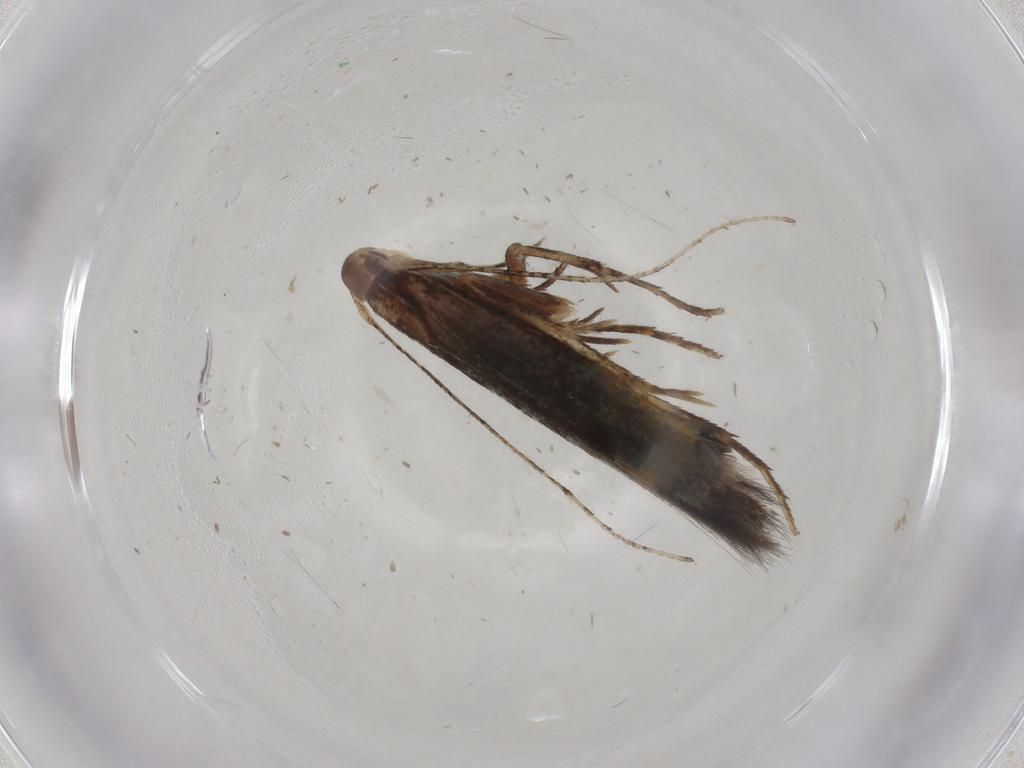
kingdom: Animalia
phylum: Arthropoda
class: Insecta
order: Lepidoptera
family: Cosmopterigidae
